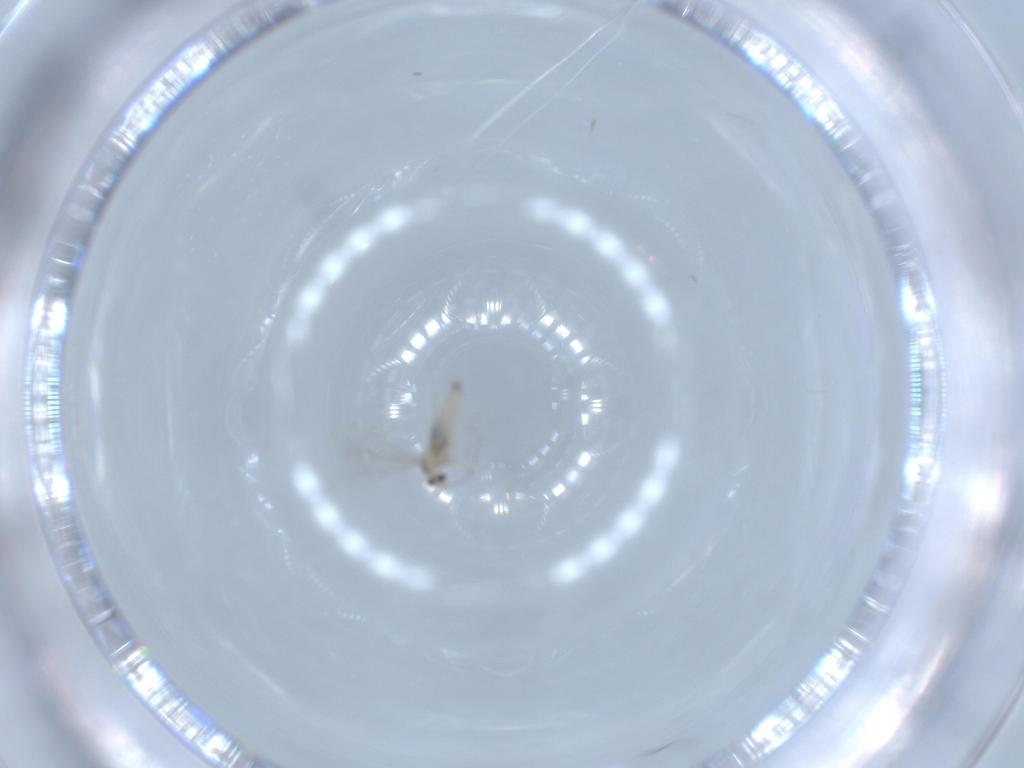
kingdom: Animalia
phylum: Arthropoda
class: Insecta
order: Diptera
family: Cecidomyiidae
